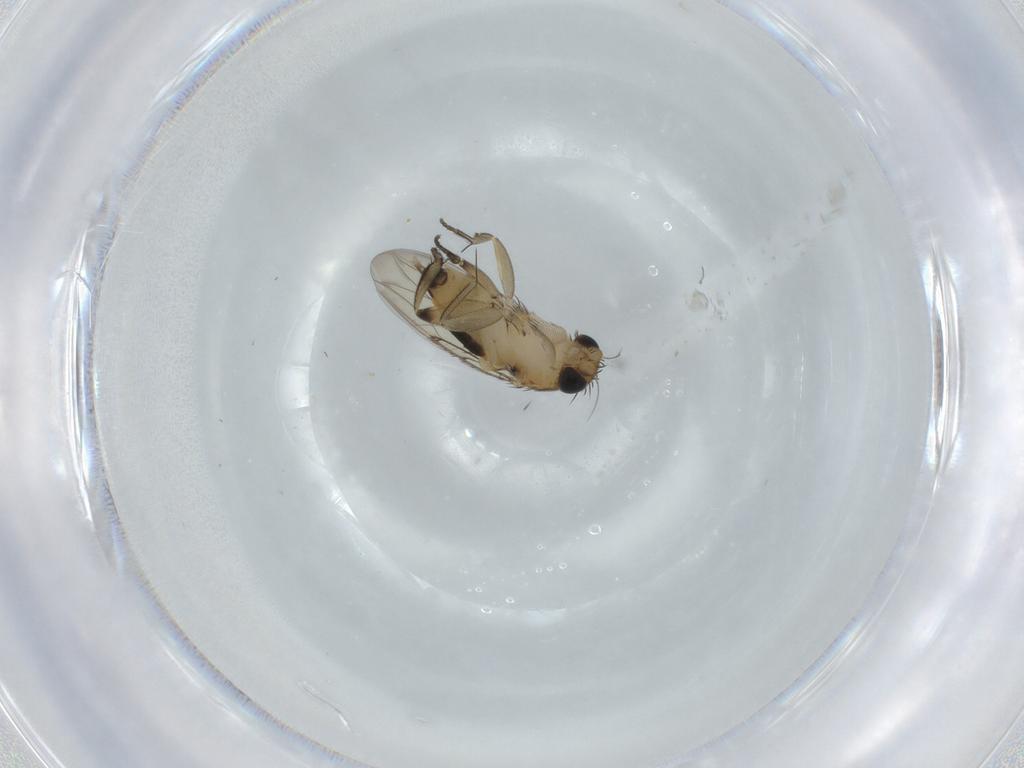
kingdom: Animalia
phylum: Arthropoda
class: Insecta
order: Diptera
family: Phoridae
